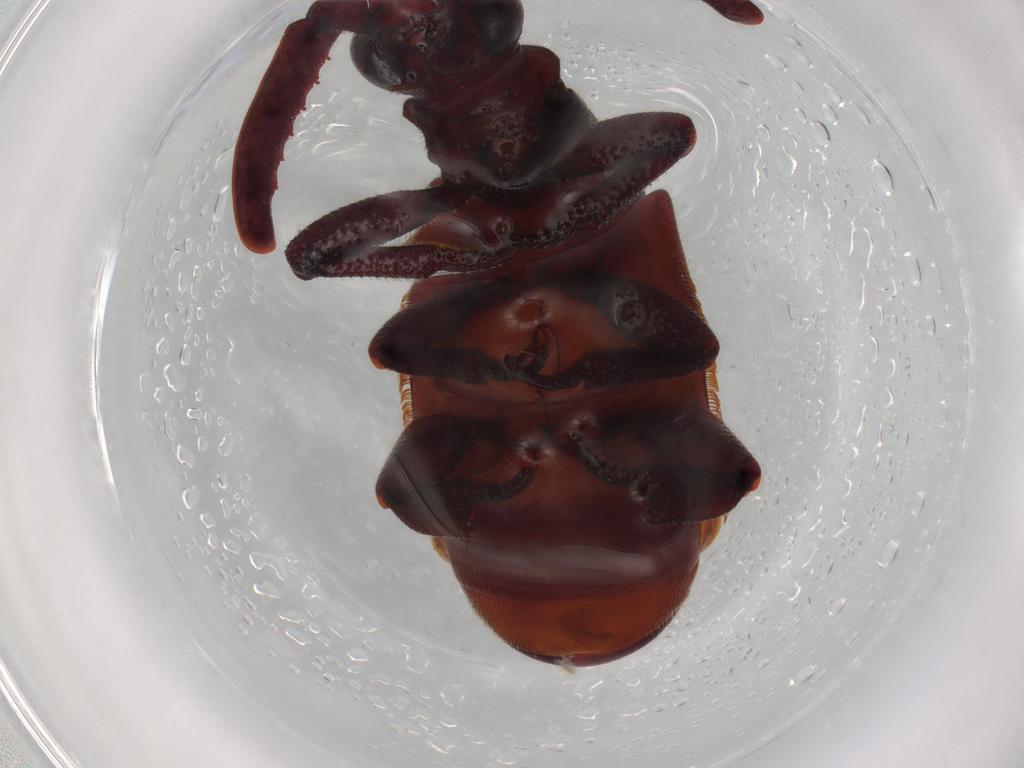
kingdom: Animalia
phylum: Arthropoda
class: Insecta
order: Coleoptera
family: Carabidae
